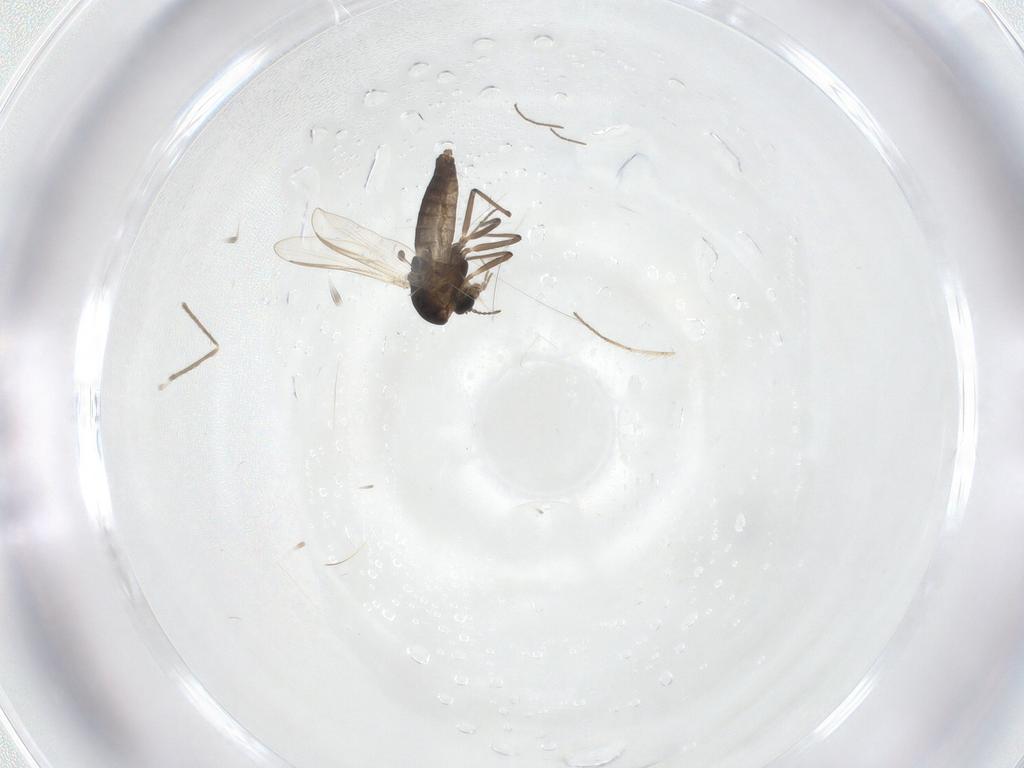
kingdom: Animalia
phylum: Arthropoda
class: Insecta
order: Diptera
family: Chironomidae
